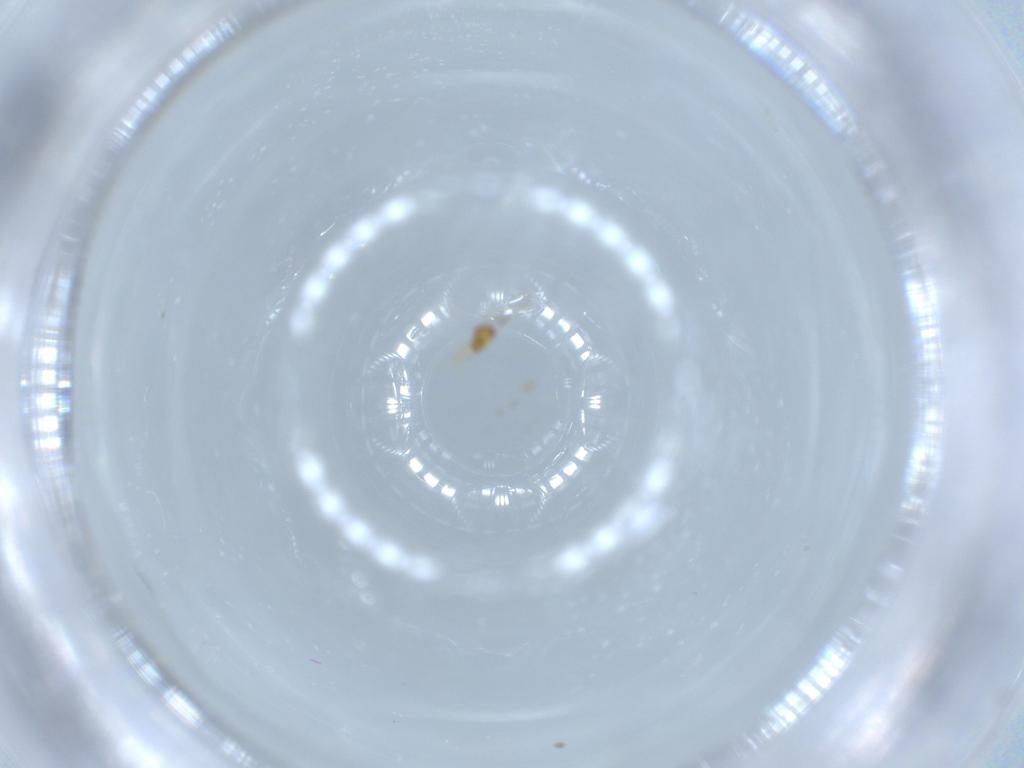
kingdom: Animalia
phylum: Arthropoda
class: Insecta
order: Hymenoptera
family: Trichogrammatidae
